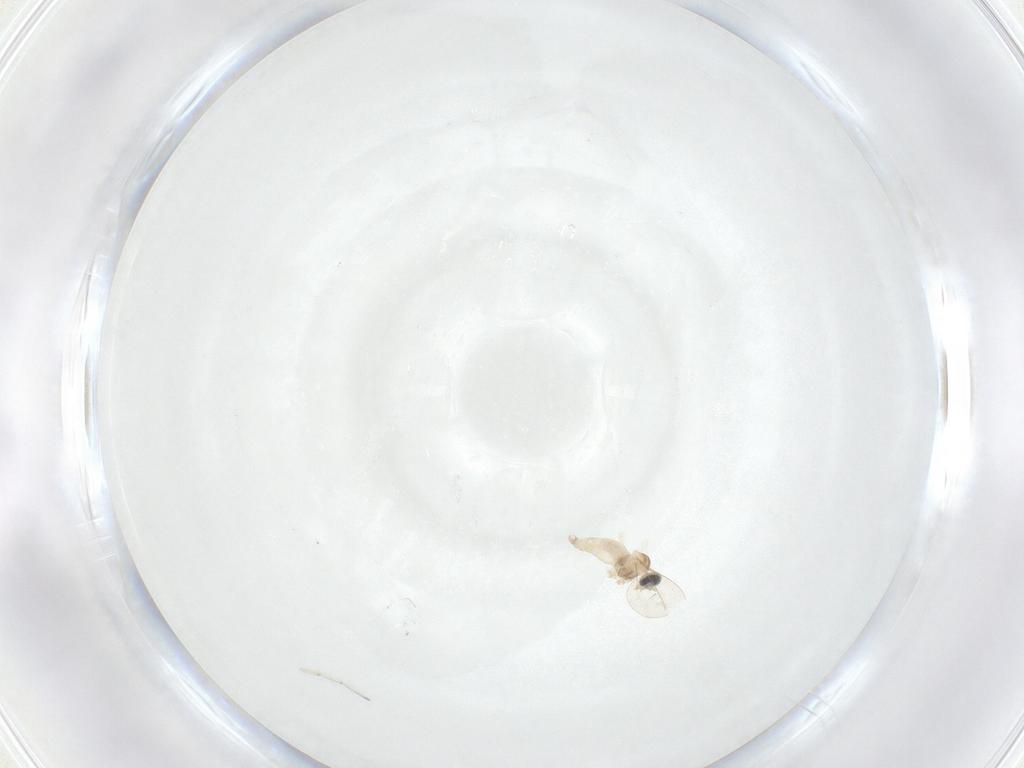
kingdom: Animalia
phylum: Arthropoda
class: Insecta
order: Diptera
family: Cecidomyiidae
